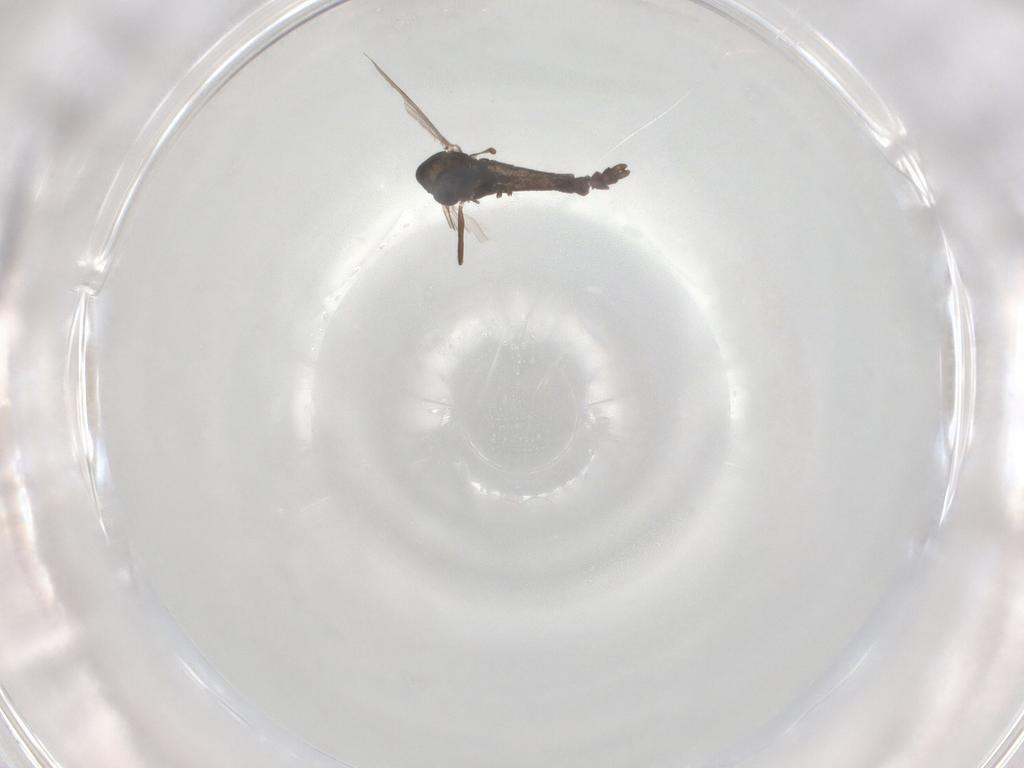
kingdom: Animalia
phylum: Arthropoda
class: Insecta
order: Diptera
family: Chironomidae
